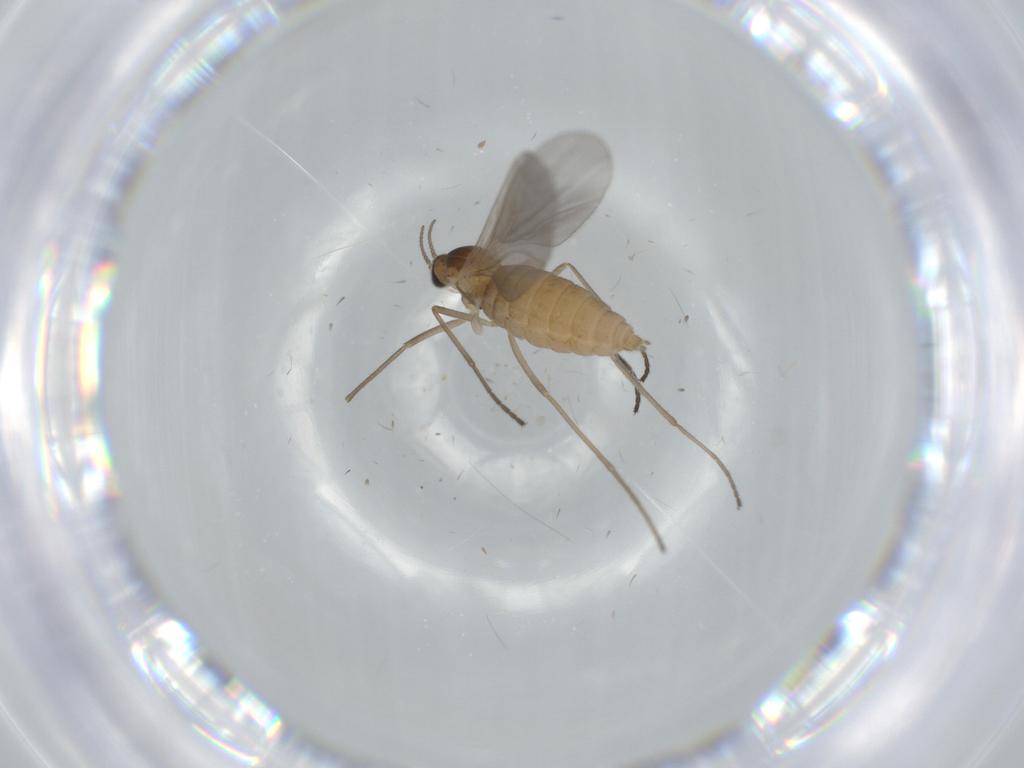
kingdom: Animalia
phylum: Arthropoda
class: Insecta
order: Diptera
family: Cecidomyiidae
